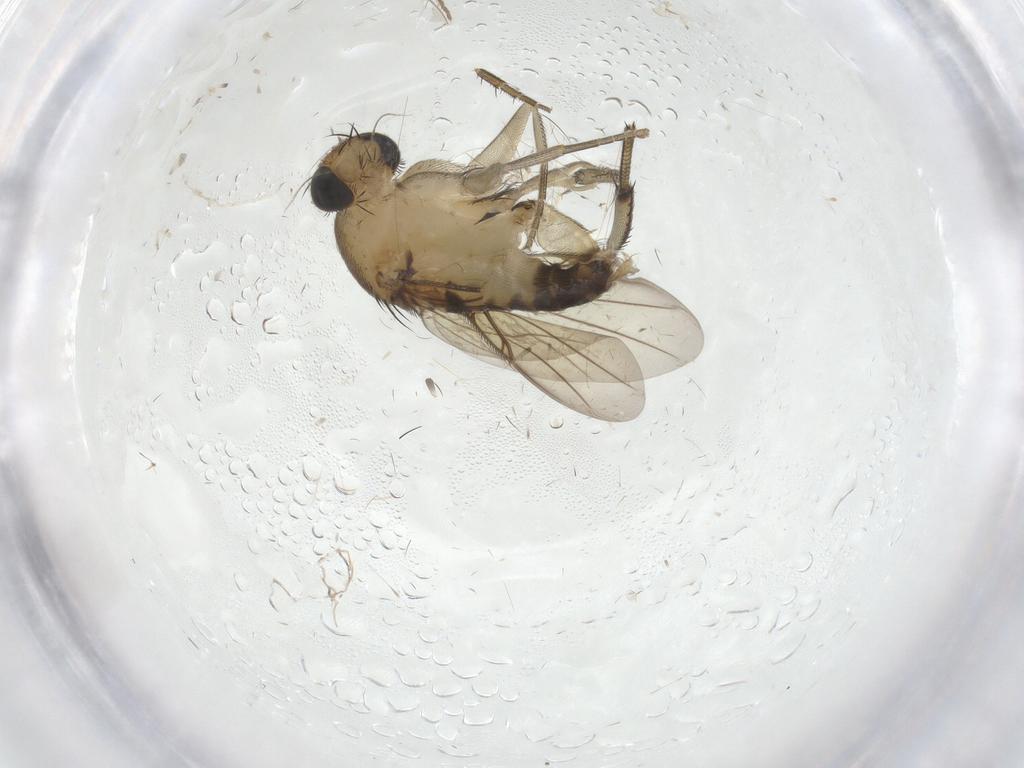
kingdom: Animalia
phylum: Arthropoda
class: Insecta
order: Diptera
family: Phoridae
